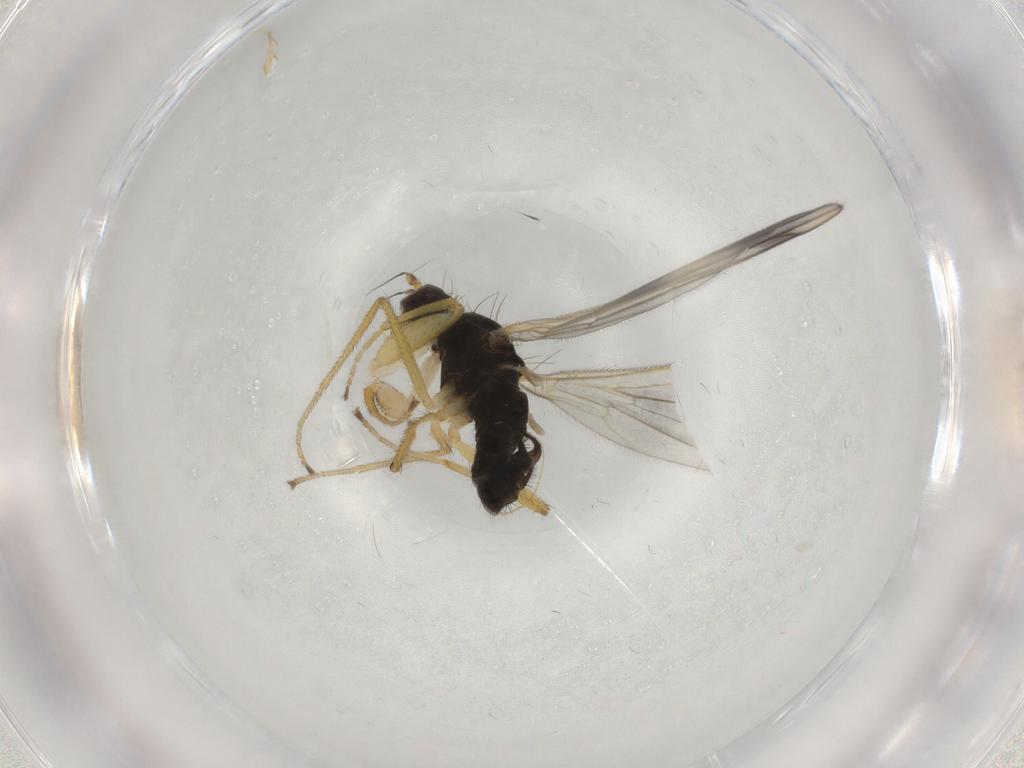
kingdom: Animalia
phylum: Arthropoda
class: Insecta
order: Diptera
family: Empididae
